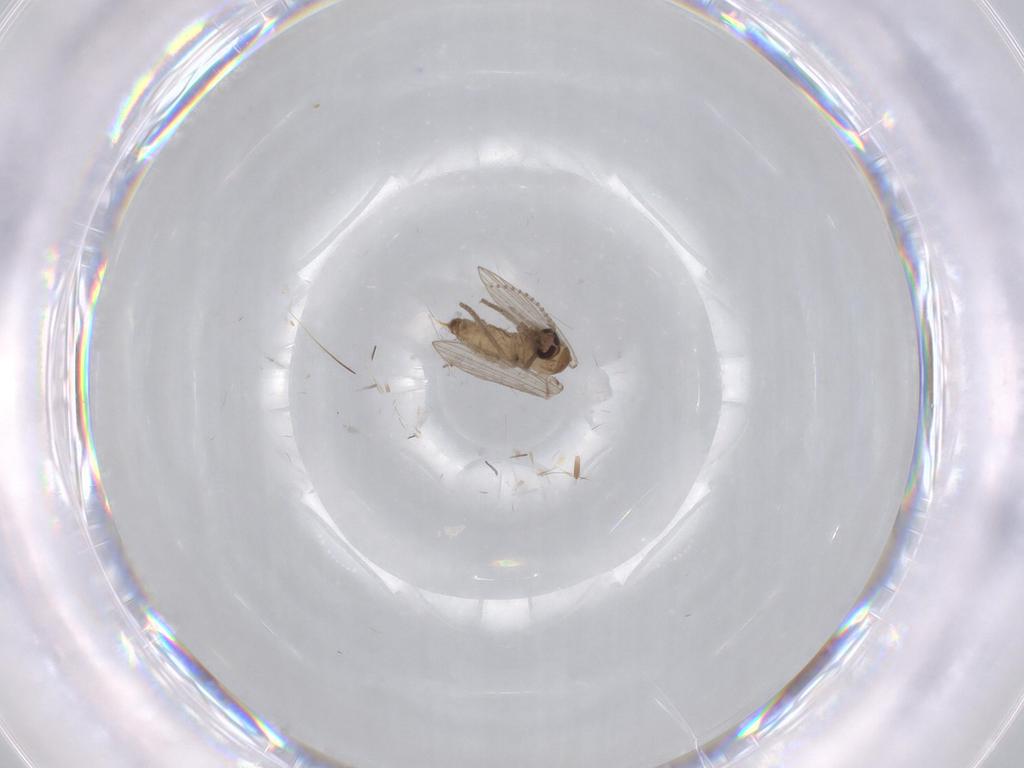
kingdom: Animalia
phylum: Arthropoda
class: Insecta
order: Diptera
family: Psychodidae
